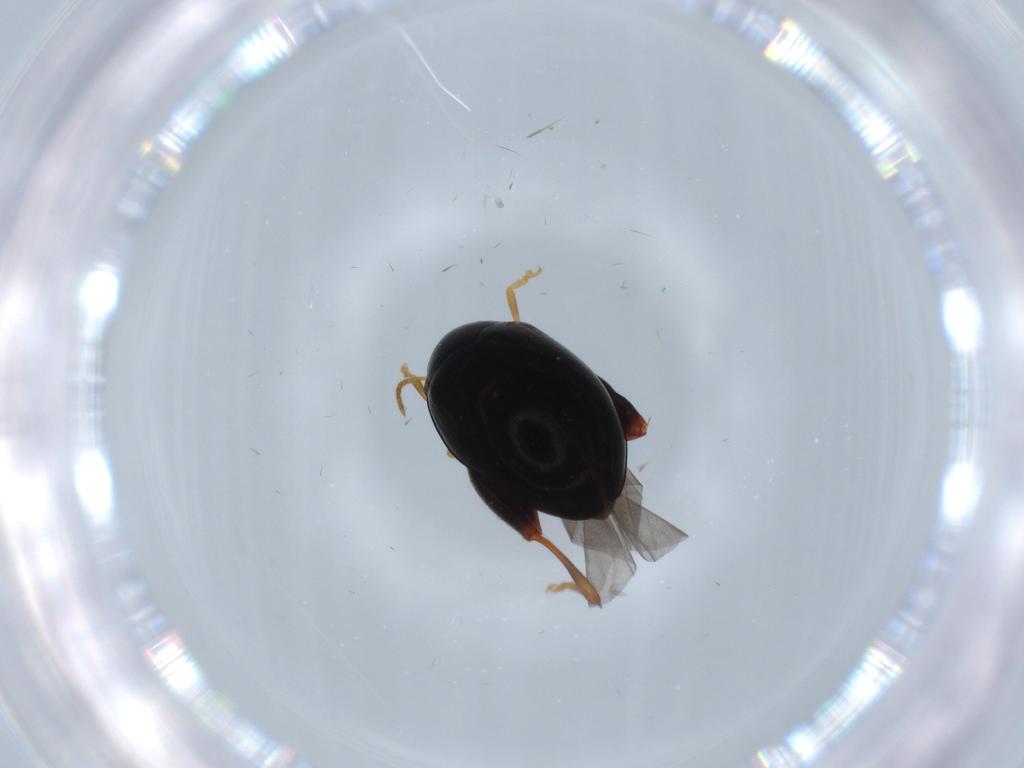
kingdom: Animalia
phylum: Arthropoda
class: Insecta
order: Coleoptera
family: Chrysomelidae
